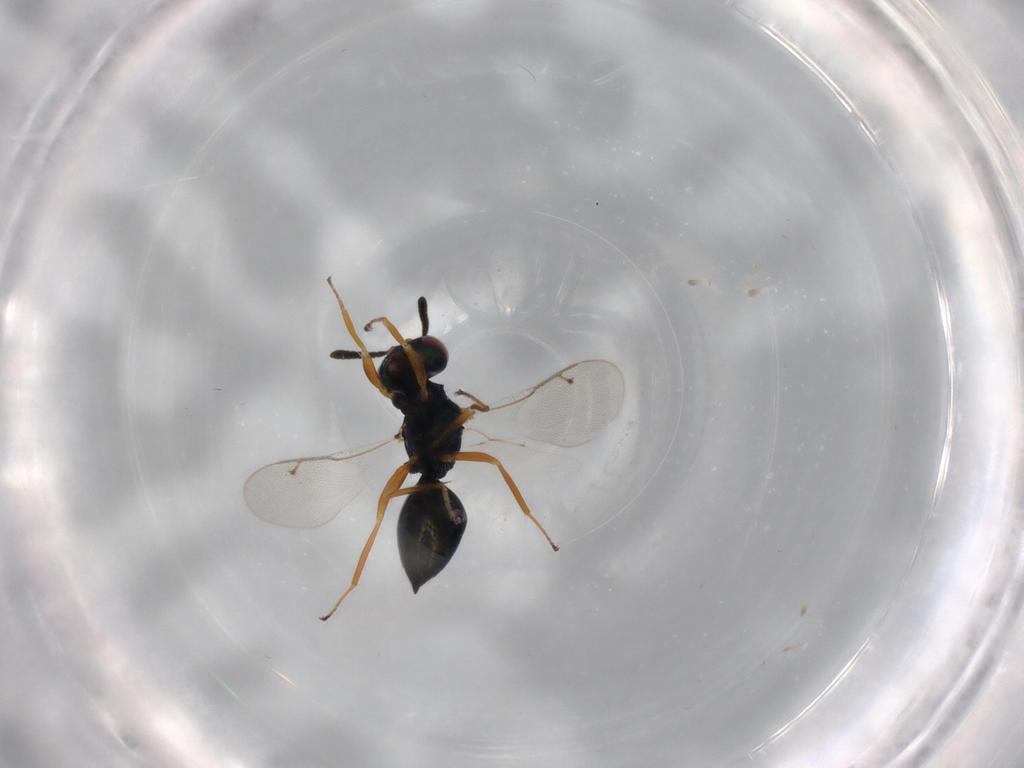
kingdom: Animalia
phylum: Arthropoda
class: Insecta
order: Hymenoptera
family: Braconidae
